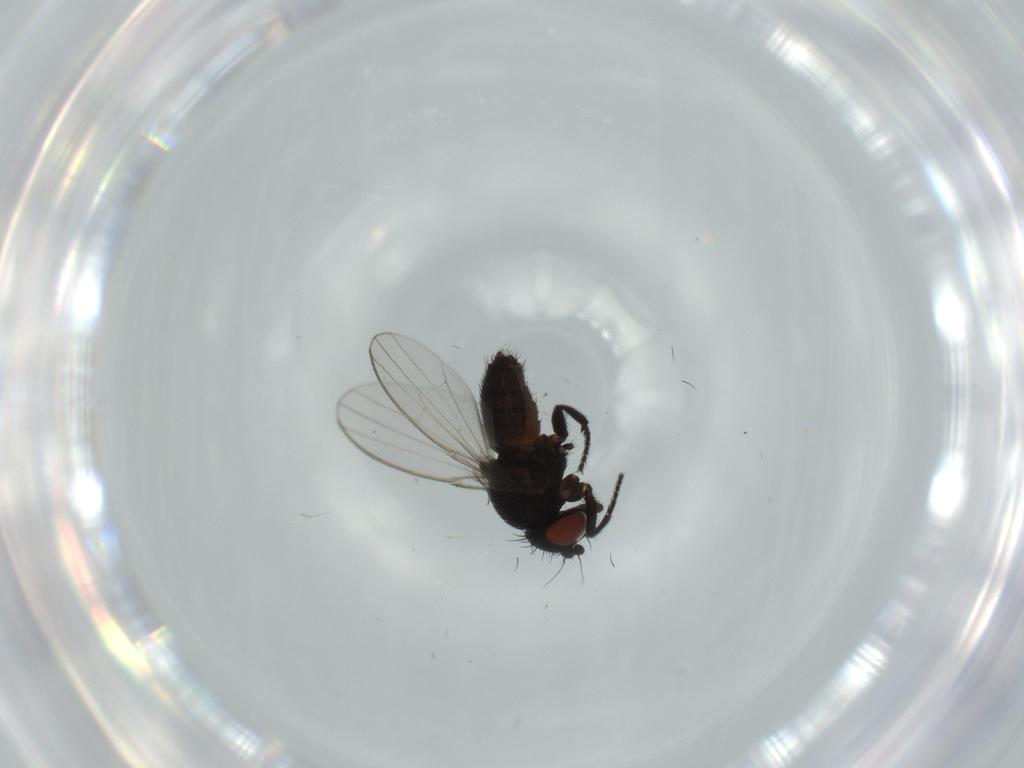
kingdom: Animalia
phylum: Arthropoda
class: Insecta
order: Diptera
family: Milichiidae
